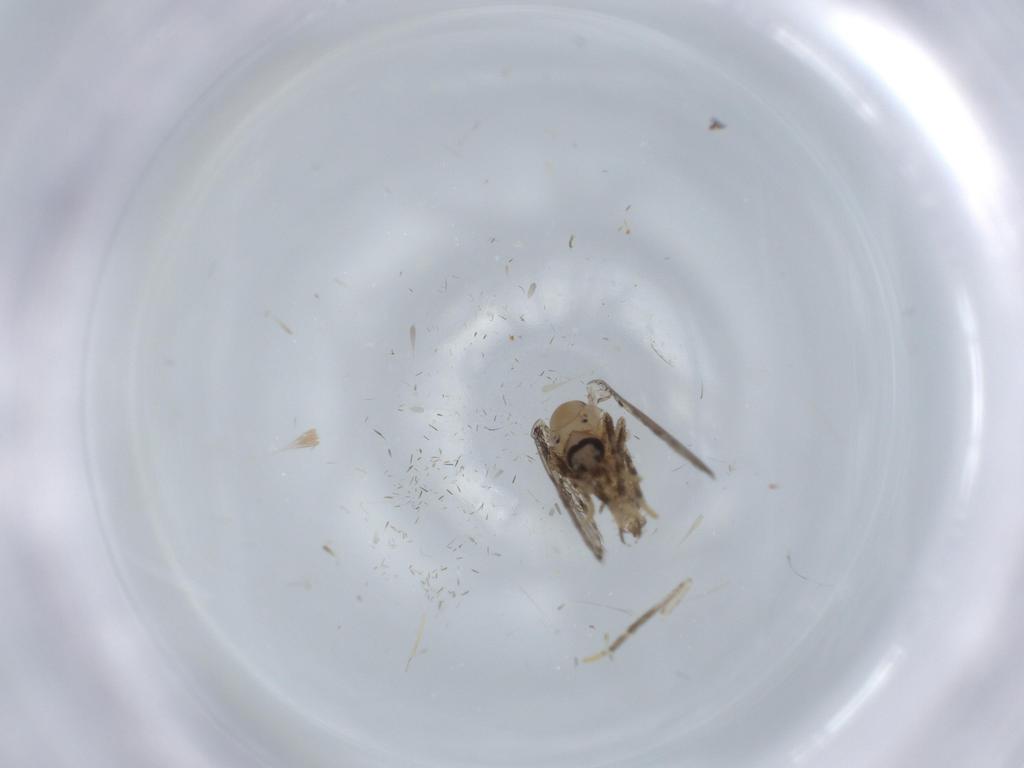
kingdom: Animalia
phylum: Arthropoda
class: Insecta
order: Diptera
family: Chironomidae
